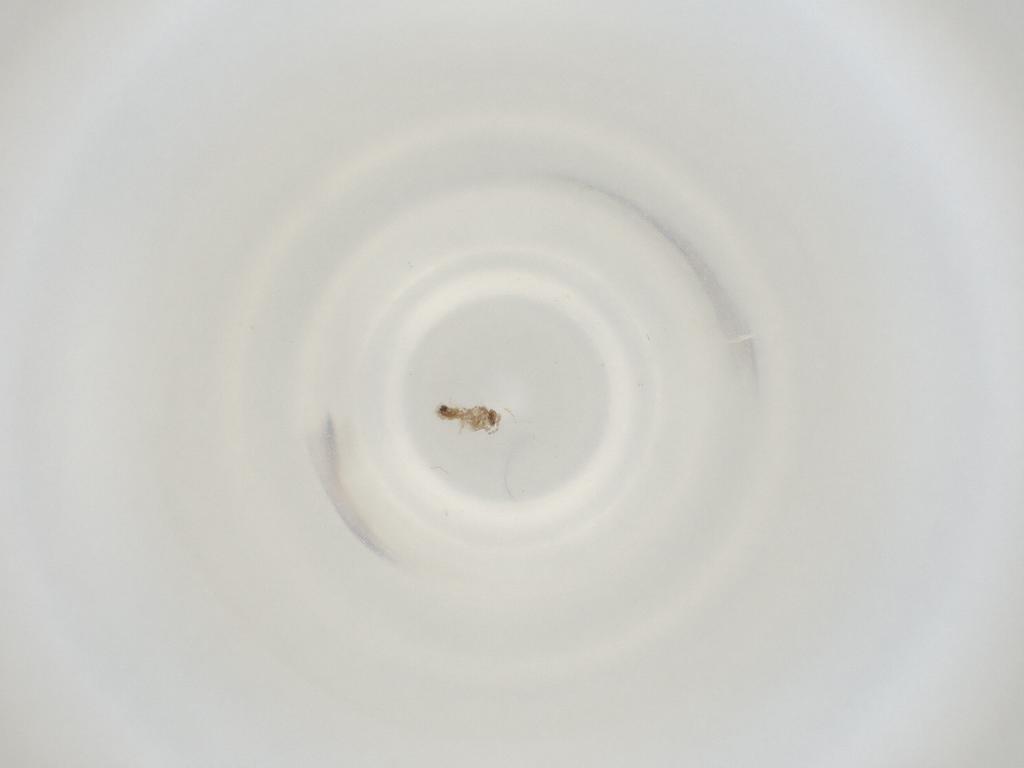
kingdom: Animalia
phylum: Arthropoda
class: Insecta
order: Diptera
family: Cecidomyiidae
